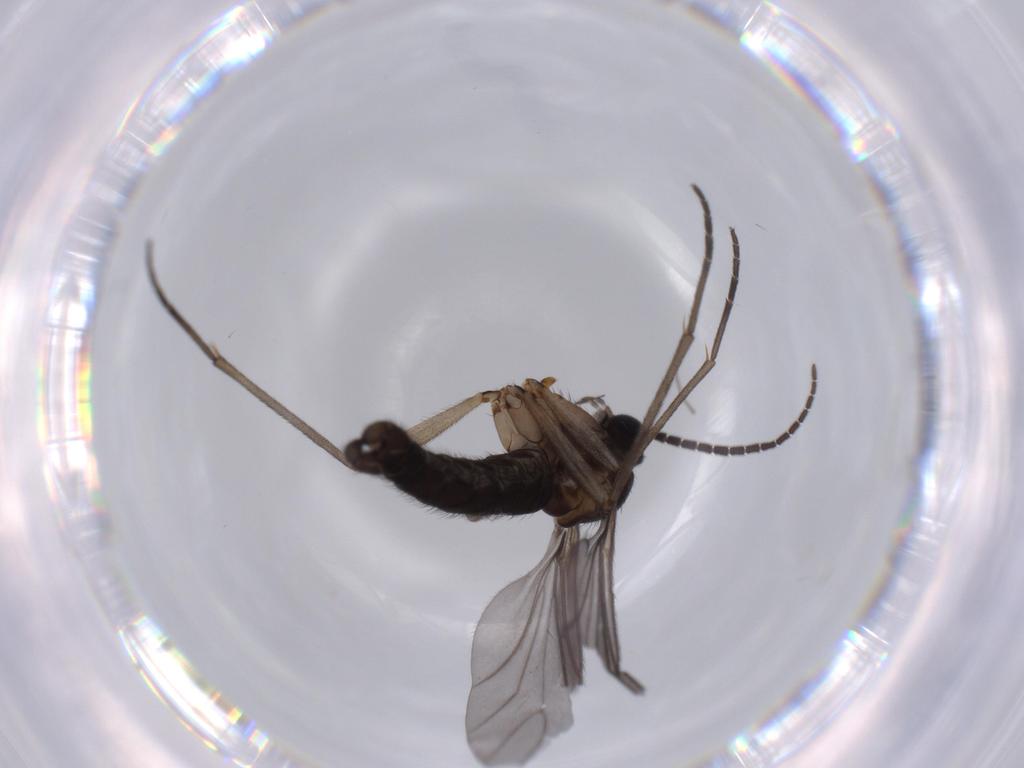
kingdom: Animalia
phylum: Arthropoda
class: Insecta
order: Diptera
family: Sciaridae
